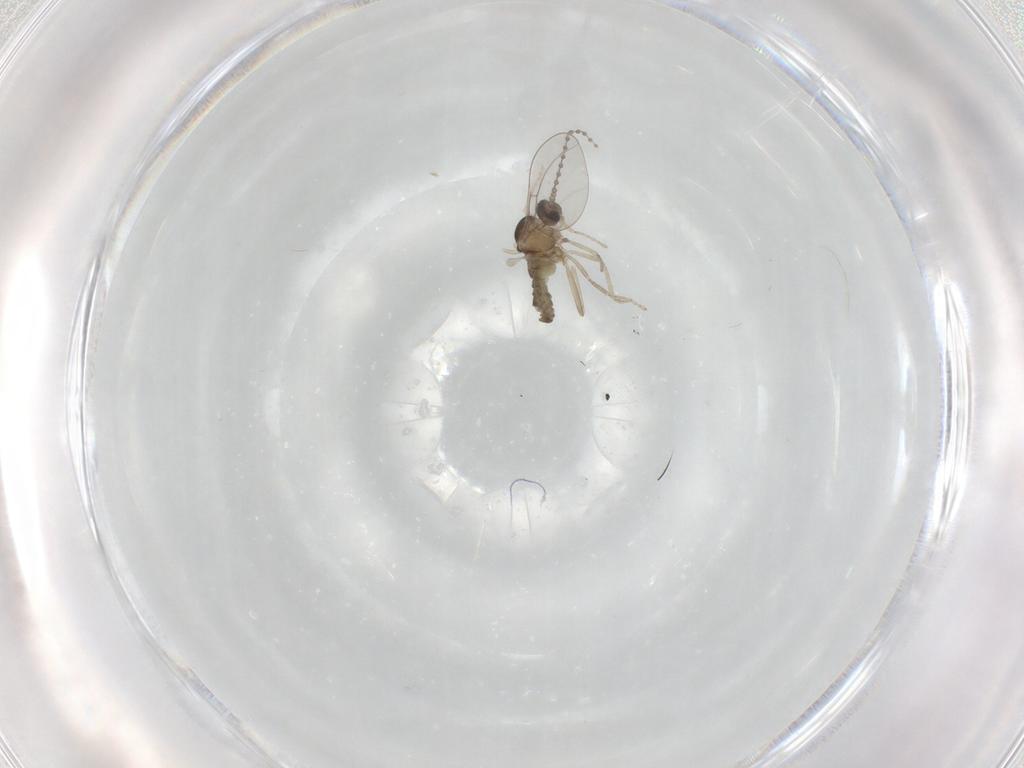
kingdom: Animalia
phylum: Arthropoda
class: Insecta
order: Diptera
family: Cecidomyiidae
